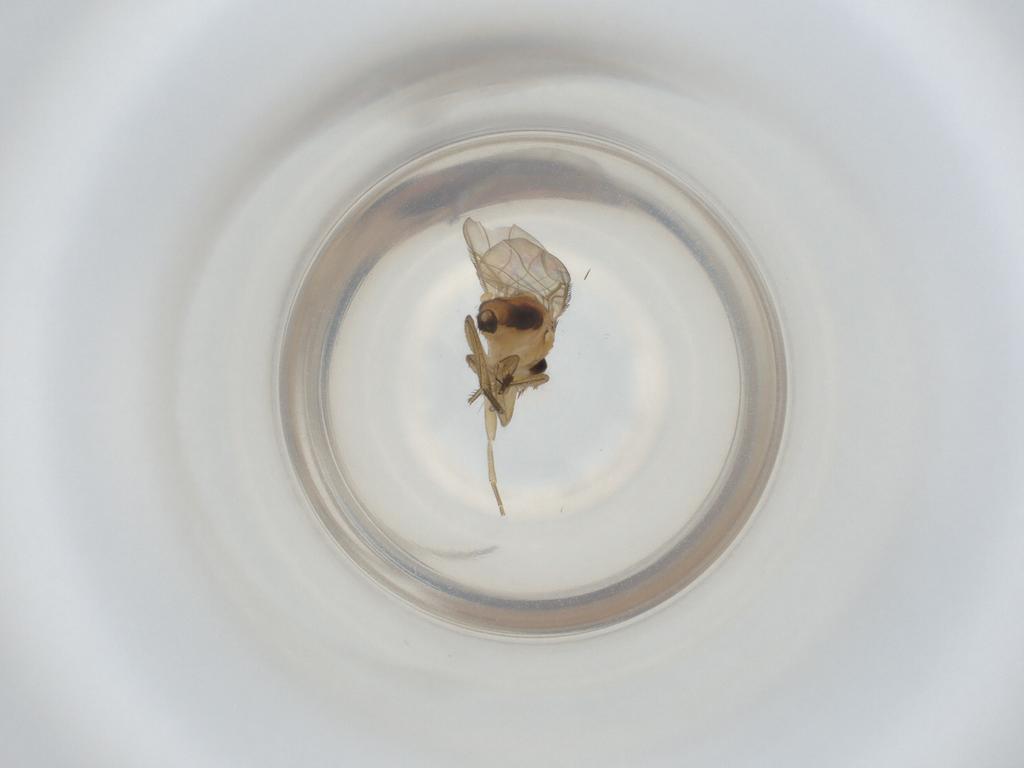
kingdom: Animalia
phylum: Arthropoda
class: Insecta
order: Diptera
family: Phoridae
